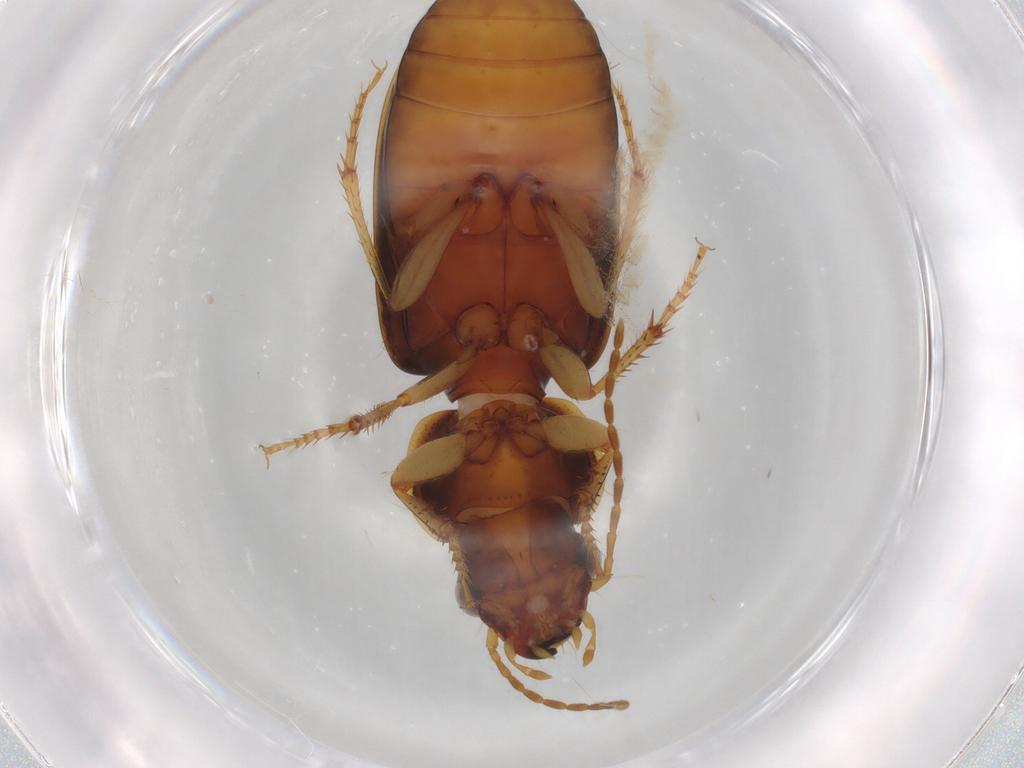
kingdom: Animalia
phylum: Arthropoda
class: Insecta
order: Coleoptera
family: Carabidae
